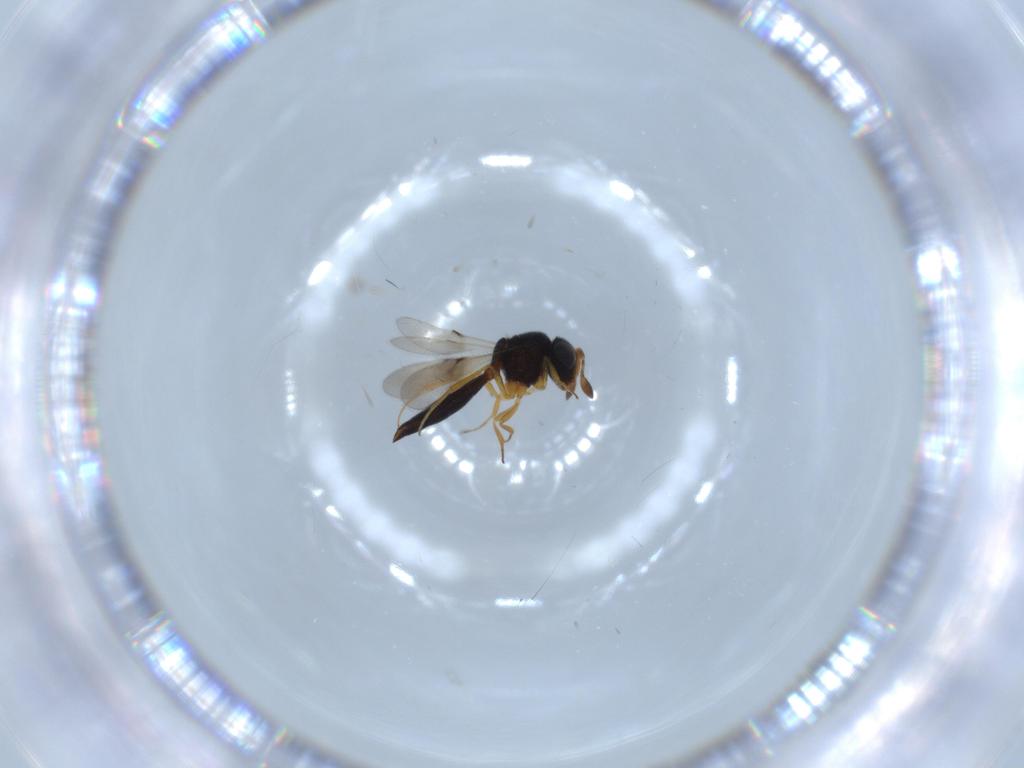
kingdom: Animalia
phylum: Arthropoda
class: Insecta
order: Hymenoptera
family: Scelionidae
